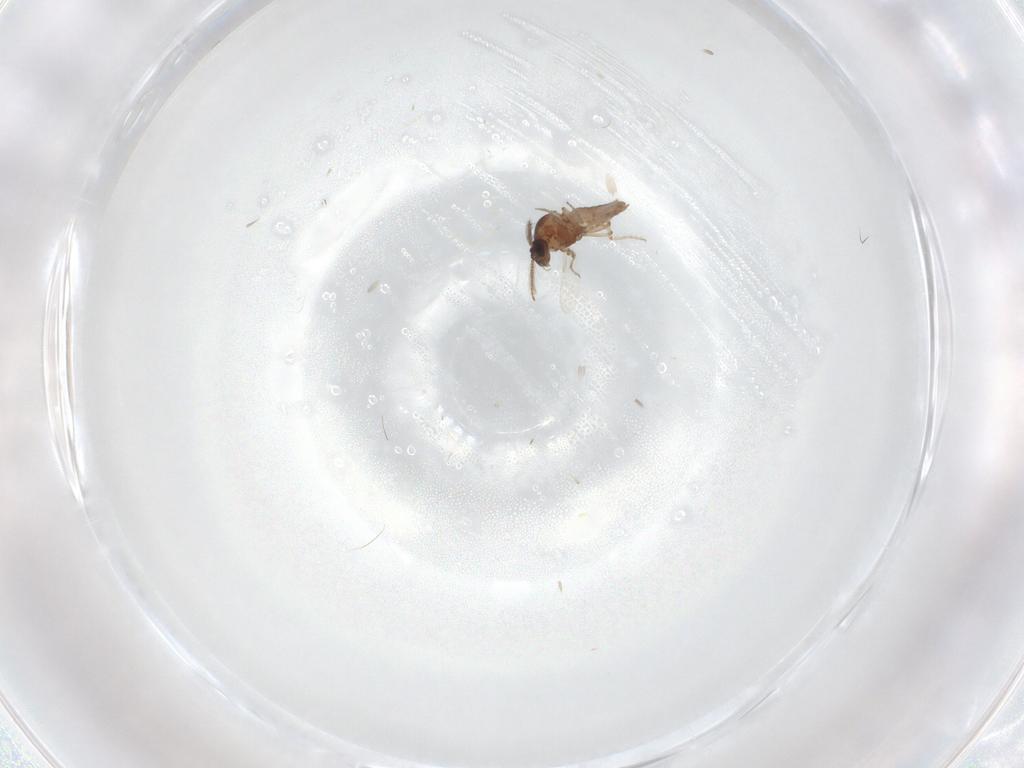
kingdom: Animalia
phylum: Arthropoda
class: Insecta
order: Diptera
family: Ceratopogonidae
